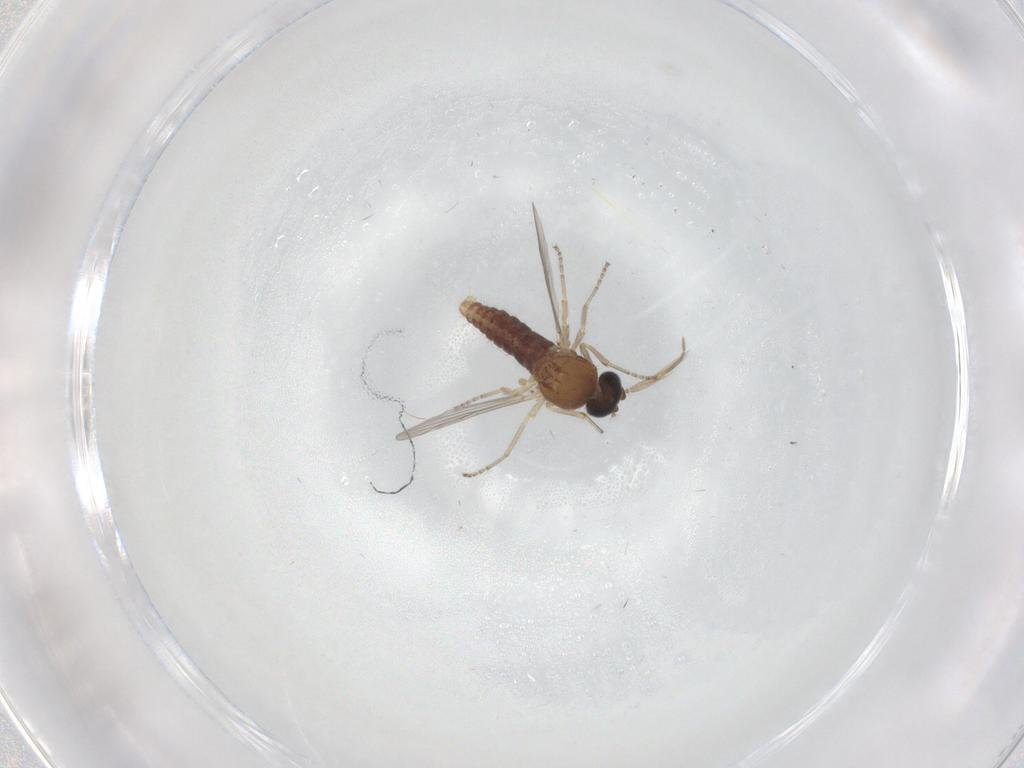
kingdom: Animalia
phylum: Arthropoda
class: Insecta
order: Diptera
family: Ceratopogonidae
